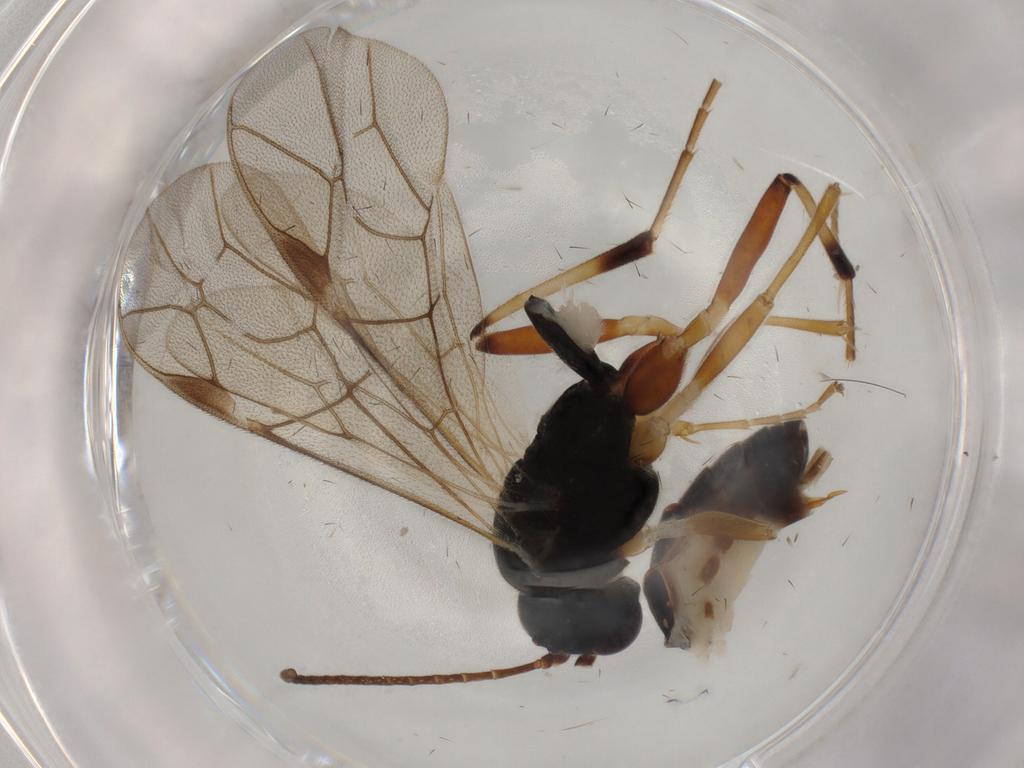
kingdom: Animalia
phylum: Arthropoda
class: Insecta
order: Hymenoptera
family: Ichneumonidae
